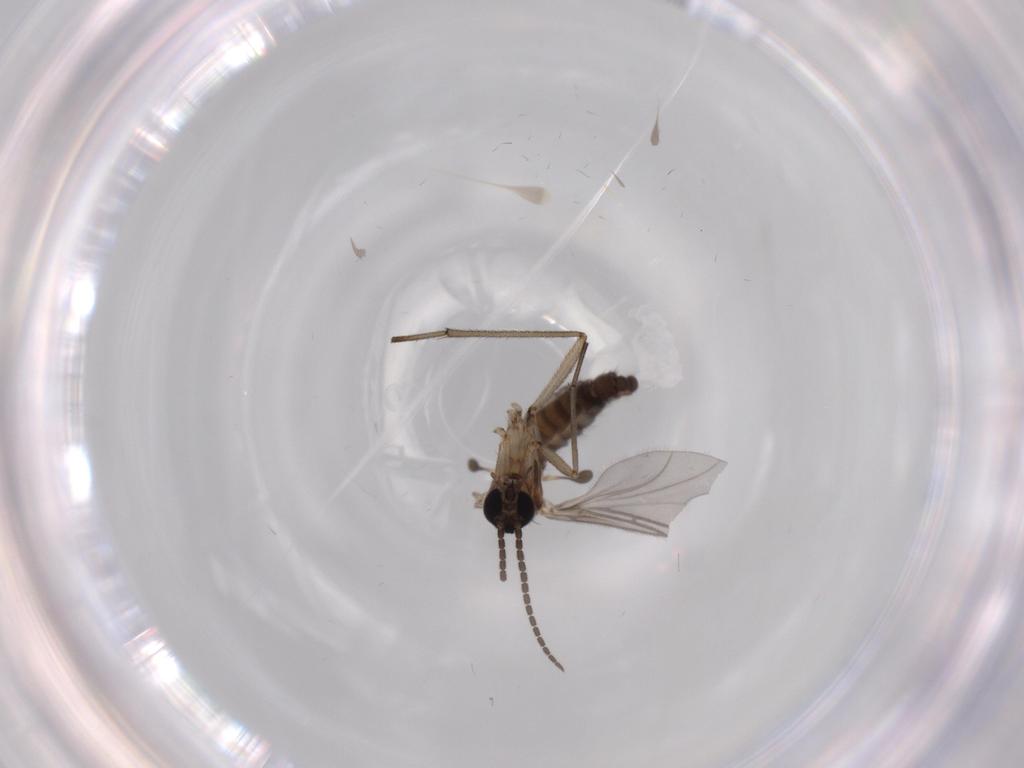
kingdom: Animalia
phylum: Arthropoda
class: Insecta
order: Diptera
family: Sciaridae
